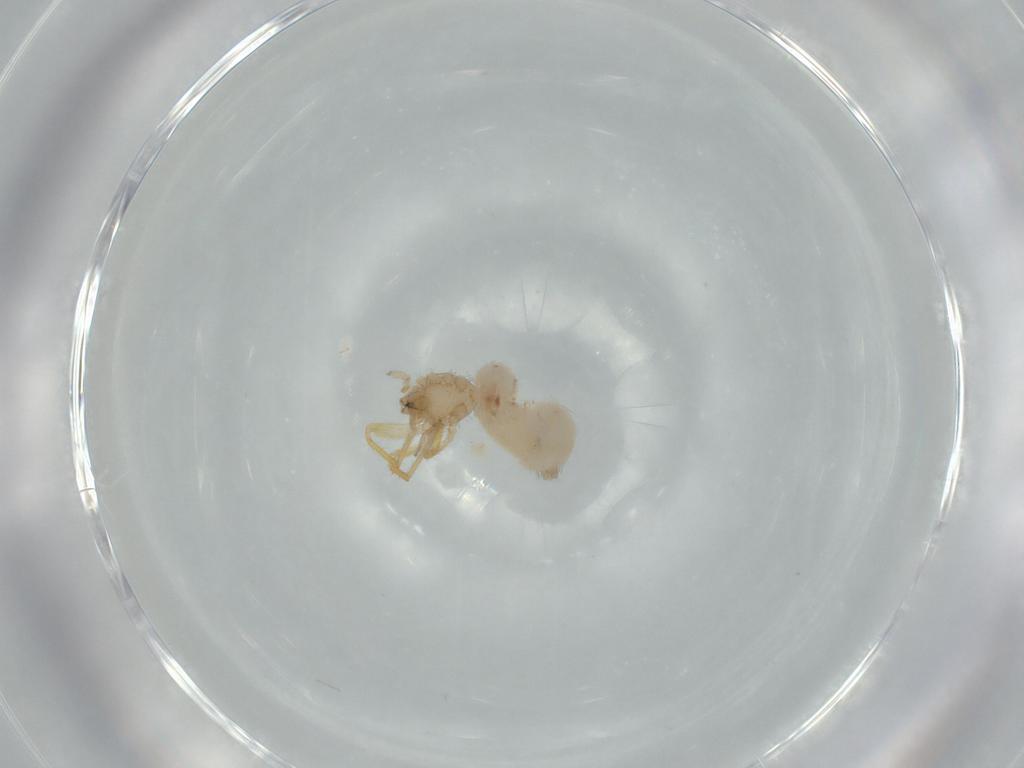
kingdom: Animalia
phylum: Arthropoda
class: Arachnida
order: Araneae
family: Oonopidae
